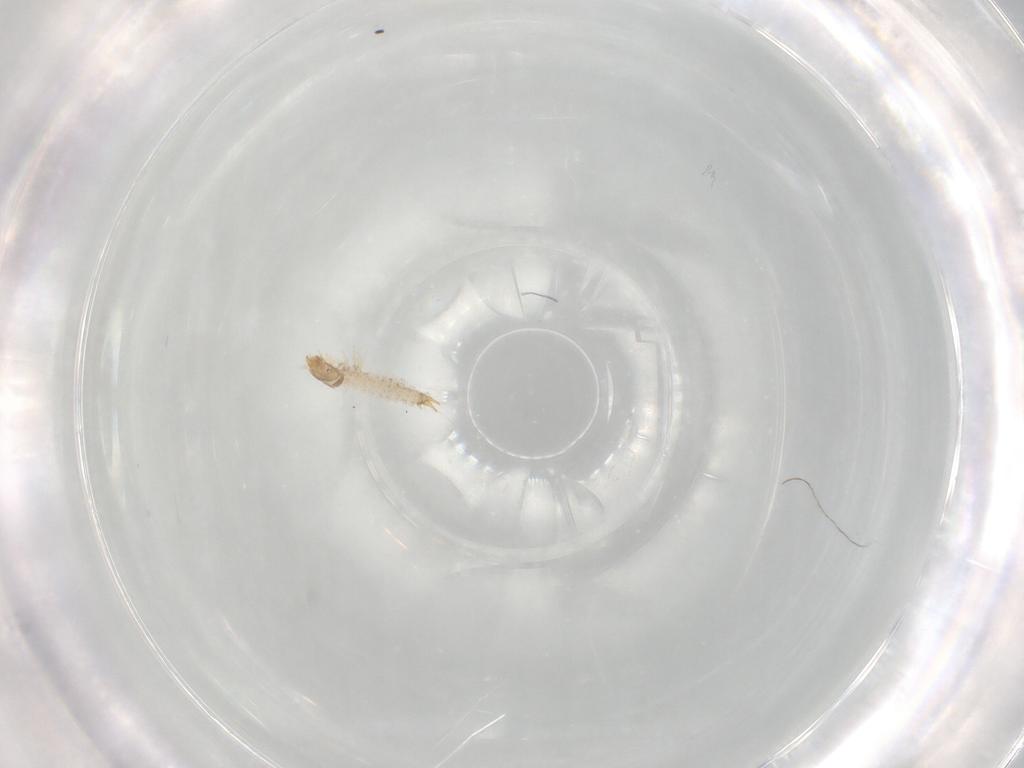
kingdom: Animalia
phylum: Arthropoda
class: Insecta
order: Coleoptera
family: Nitidulidae
